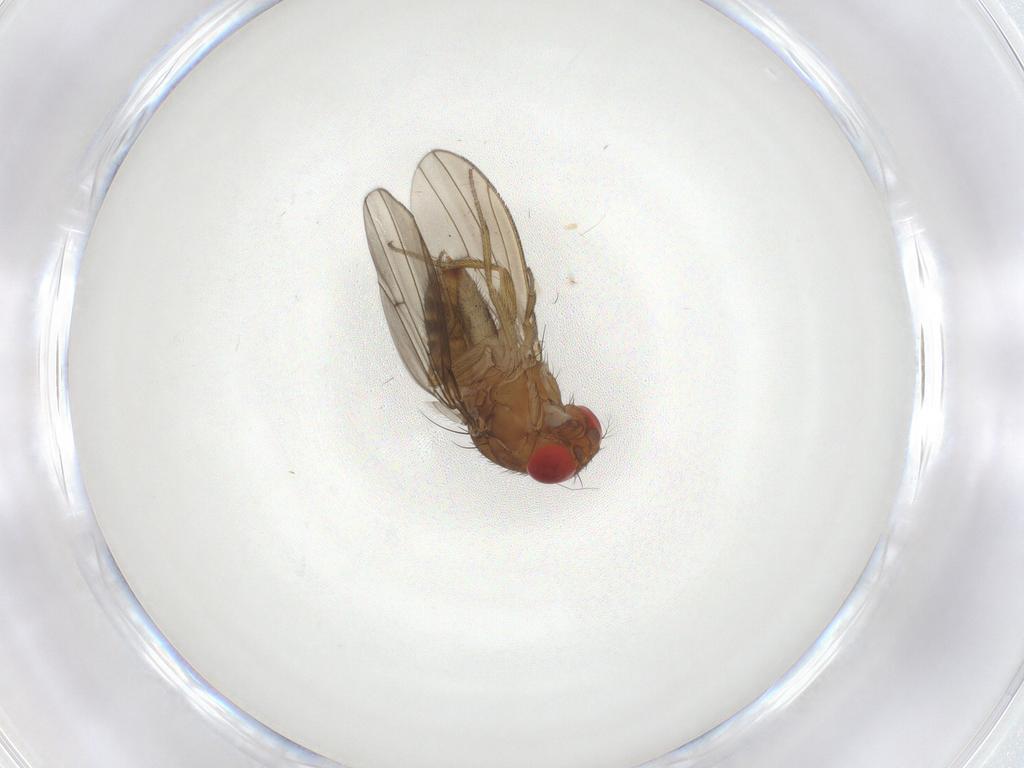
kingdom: Animalia
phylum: Arthropoda
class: Insecta
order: Diptera
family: Drosophilidae
